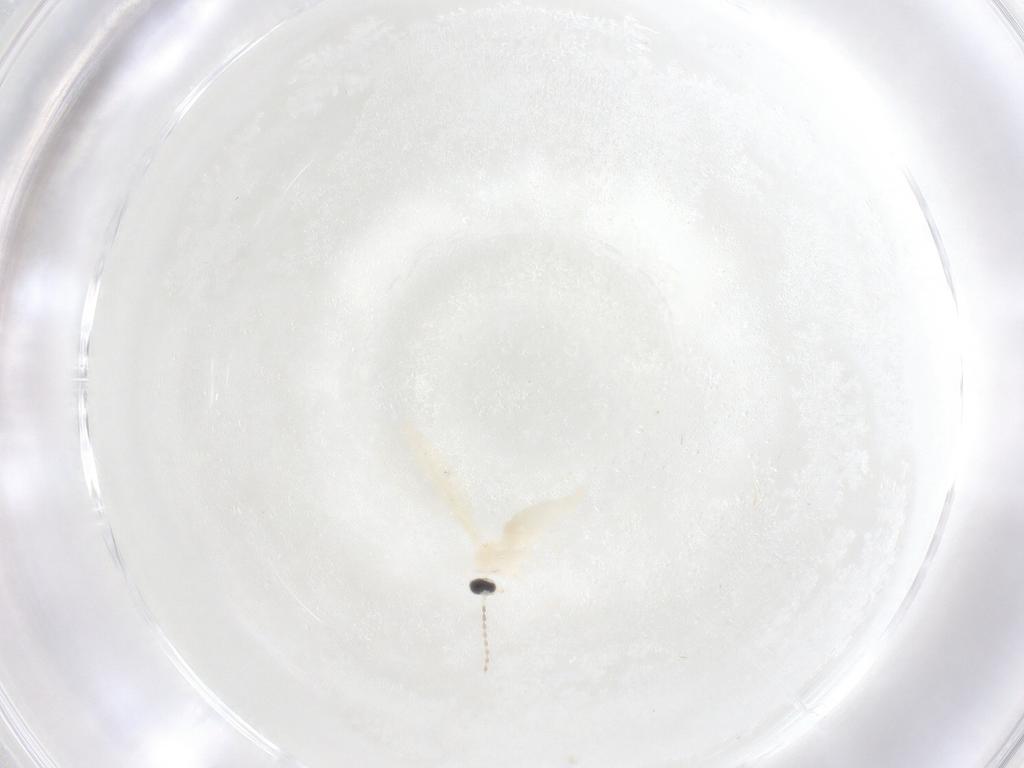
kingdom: Animalia
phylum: Arthropoda
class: Insecta
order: Diptera
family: Cecidomyiidae
